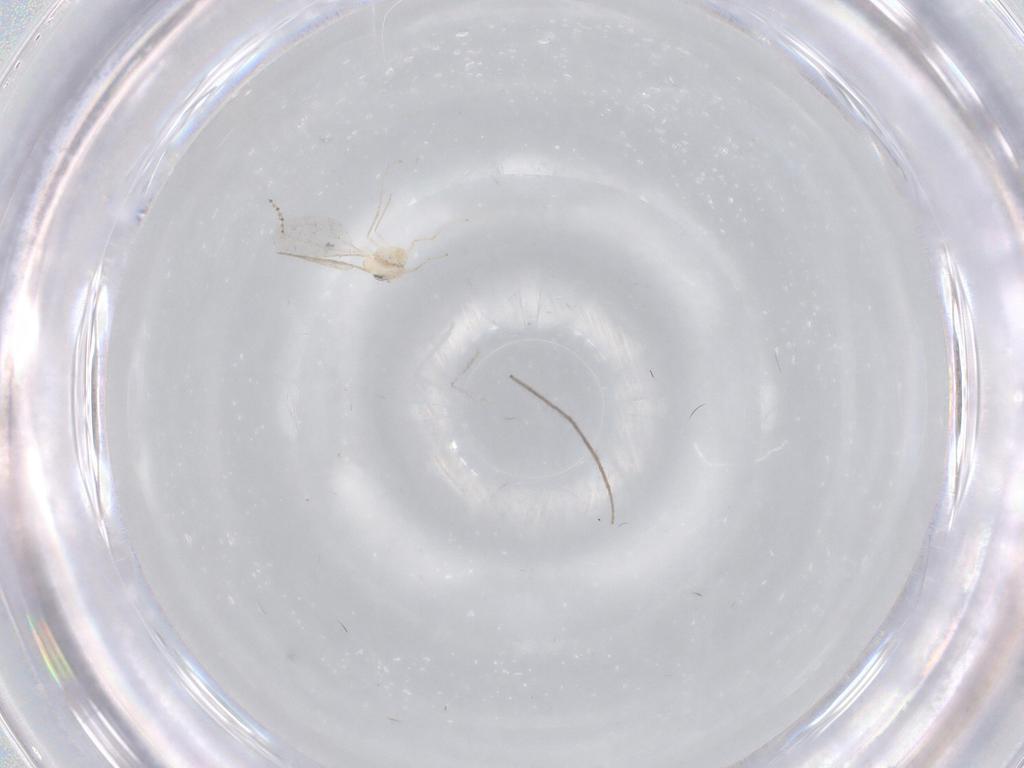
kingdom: Animalia
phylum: Arthropoda
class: Insecta
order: Diptera
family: Cecidomyiidae
